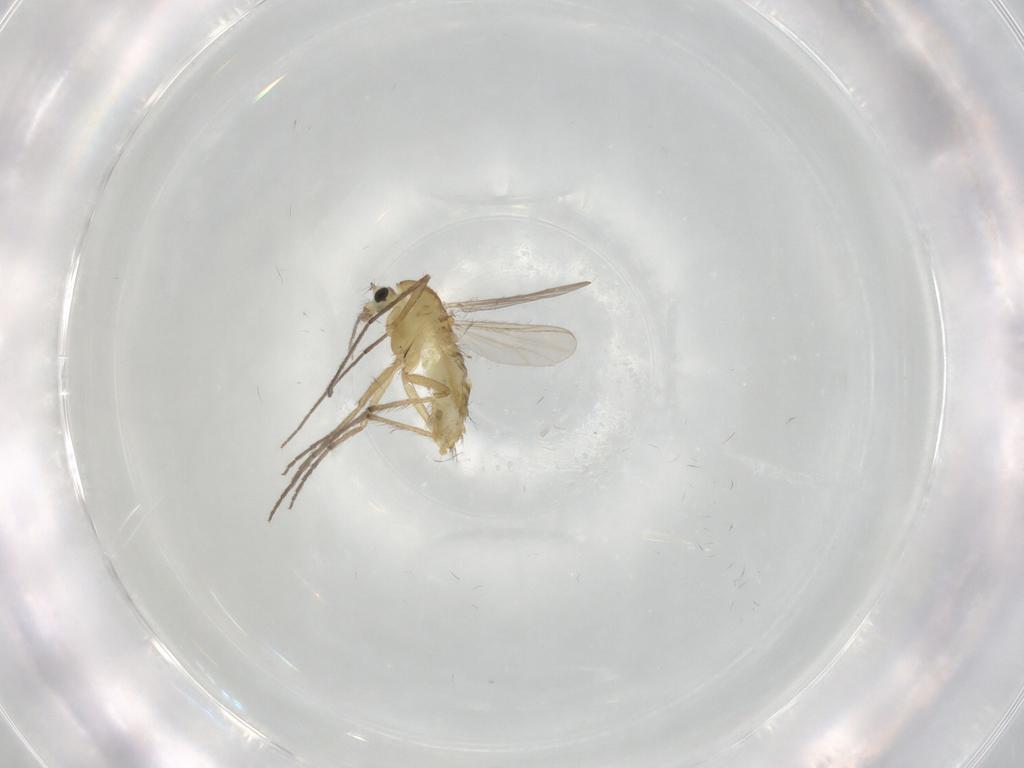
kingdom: Animalia
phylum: Arthropoda
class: Insecta
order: Diptera
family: Chironomidae
